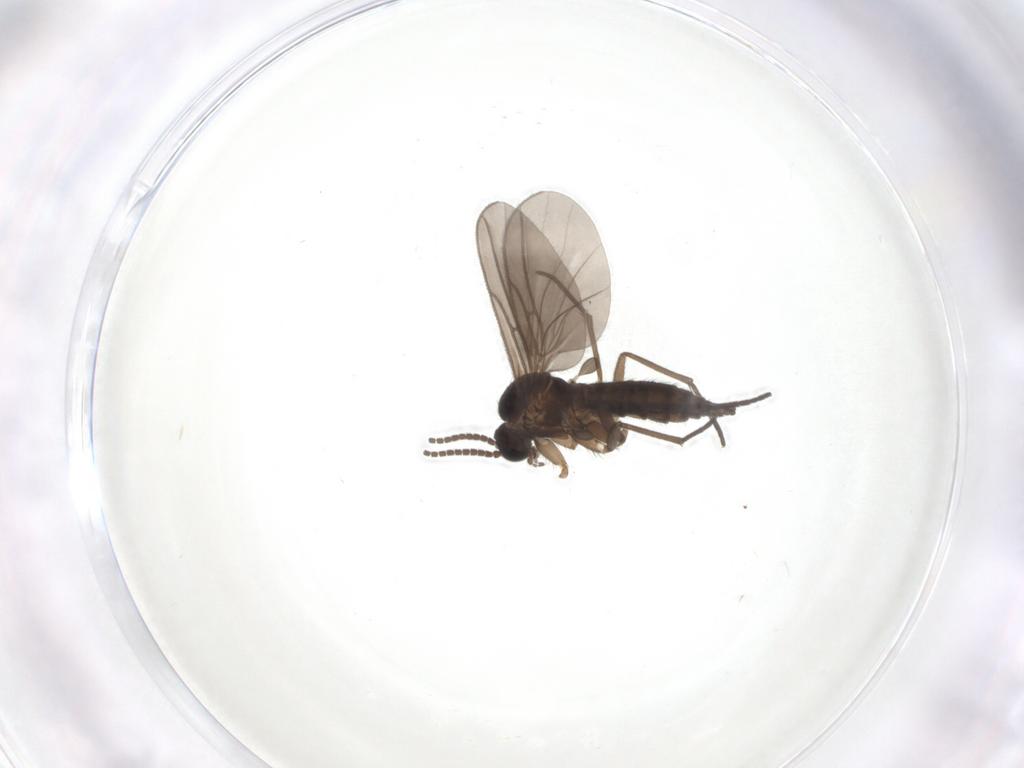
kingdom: Animalia
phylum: Arthropoda
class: Insecta
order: Diptera
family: Sciaridae
